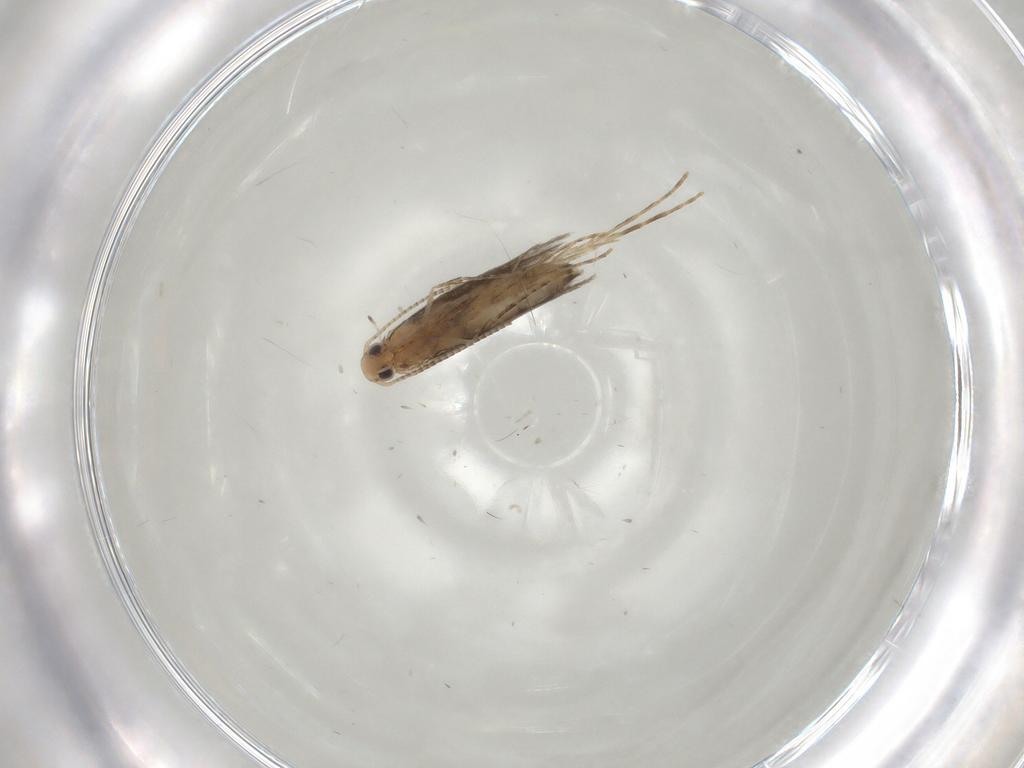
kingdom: Animalia
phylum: Arthropoda
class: Insecta
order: Lepidoptera
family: Gracillariidae
